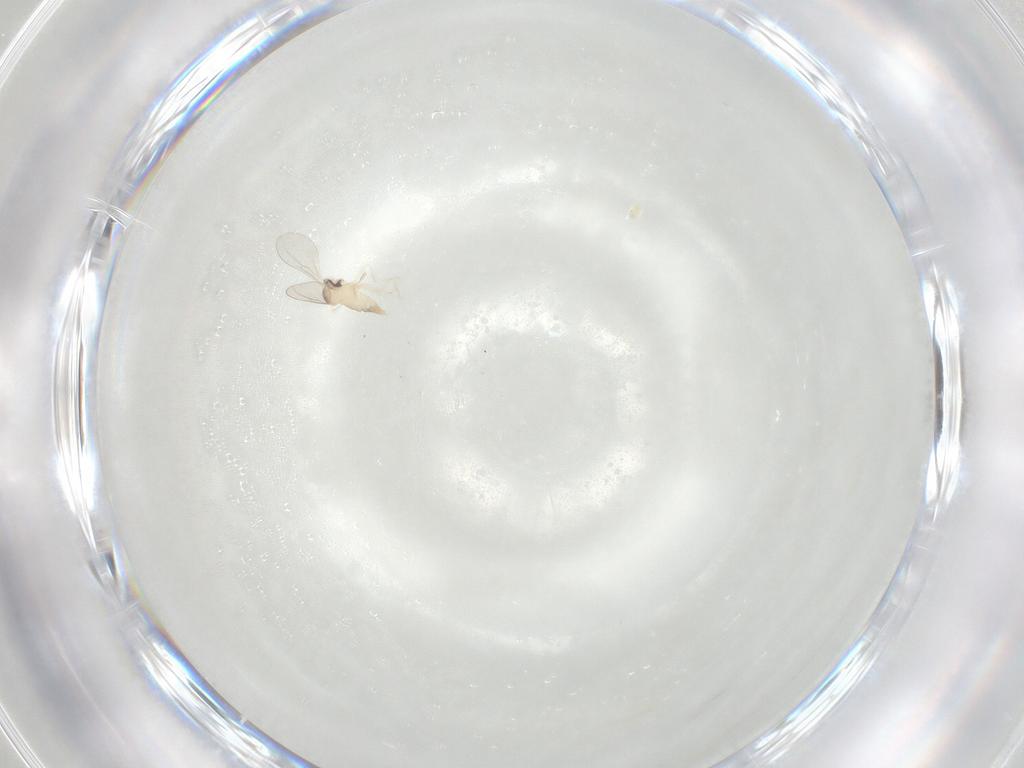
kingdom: Animalia
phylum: Arthropoda
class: Insecta
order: Diptera
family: Cecidomyiidae
